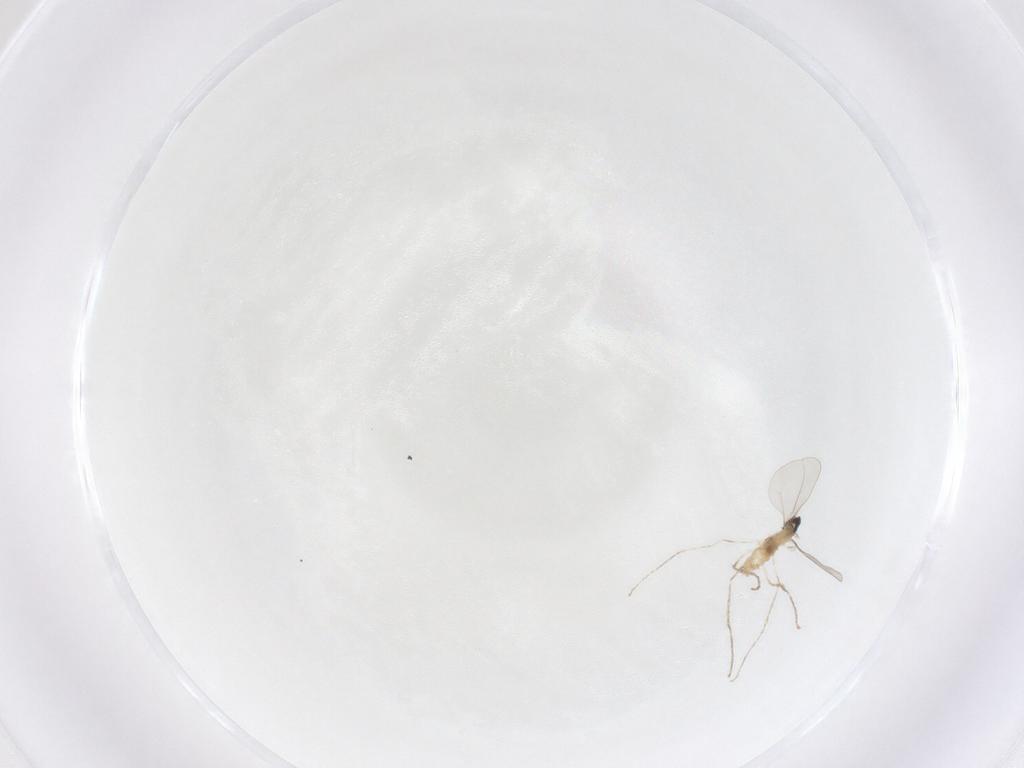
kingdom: Animalia
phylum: Arthropoda
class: Insecta
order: Diptera
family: Cecidomyiidae
